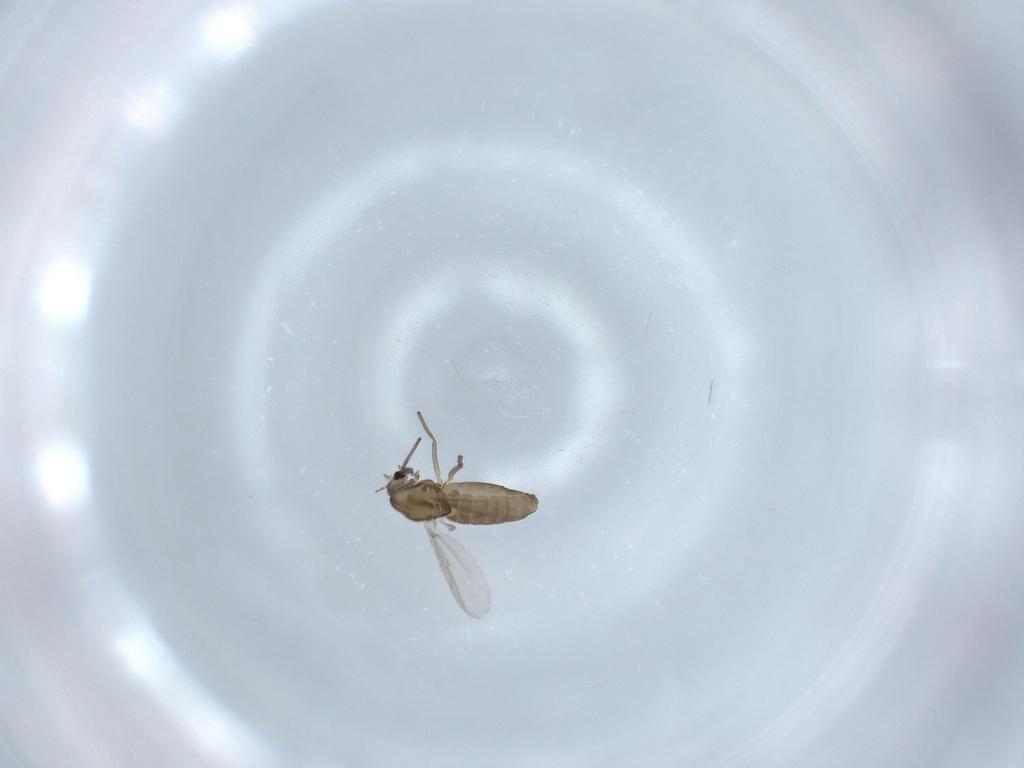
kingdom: Animalia
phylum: Arthropoda
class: Insecta
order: Diptera
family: Chironomidae
